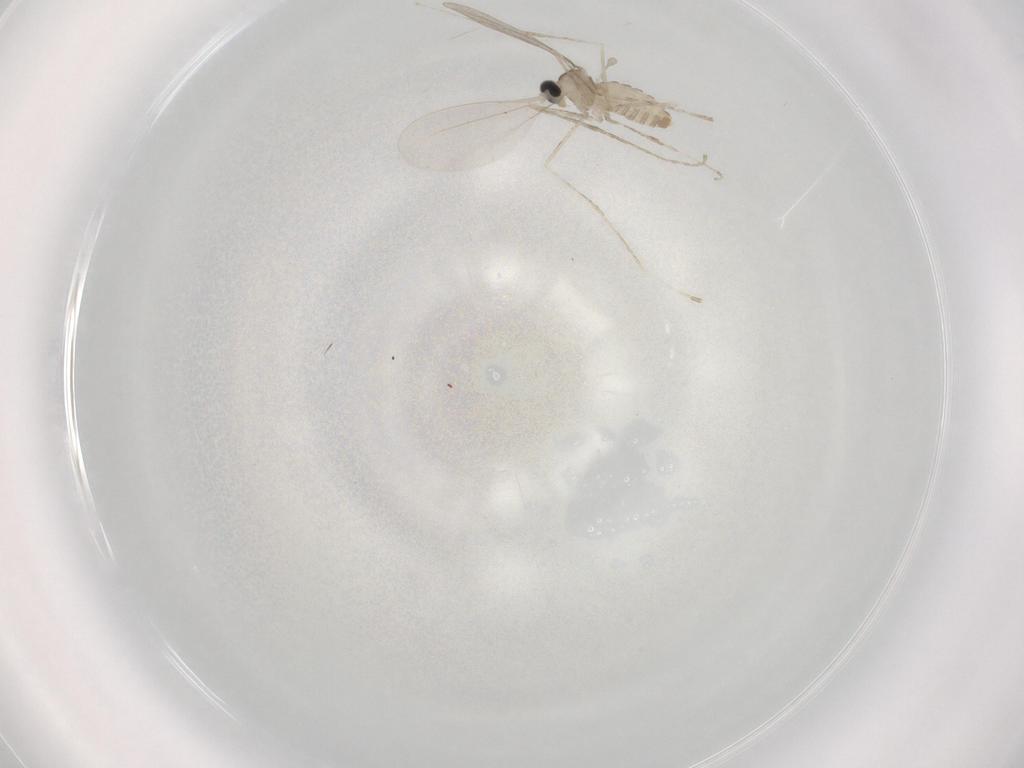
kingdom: Animalia
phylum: Arthropoda
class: Insecta
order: Diptera
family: Cecidomyiidae
